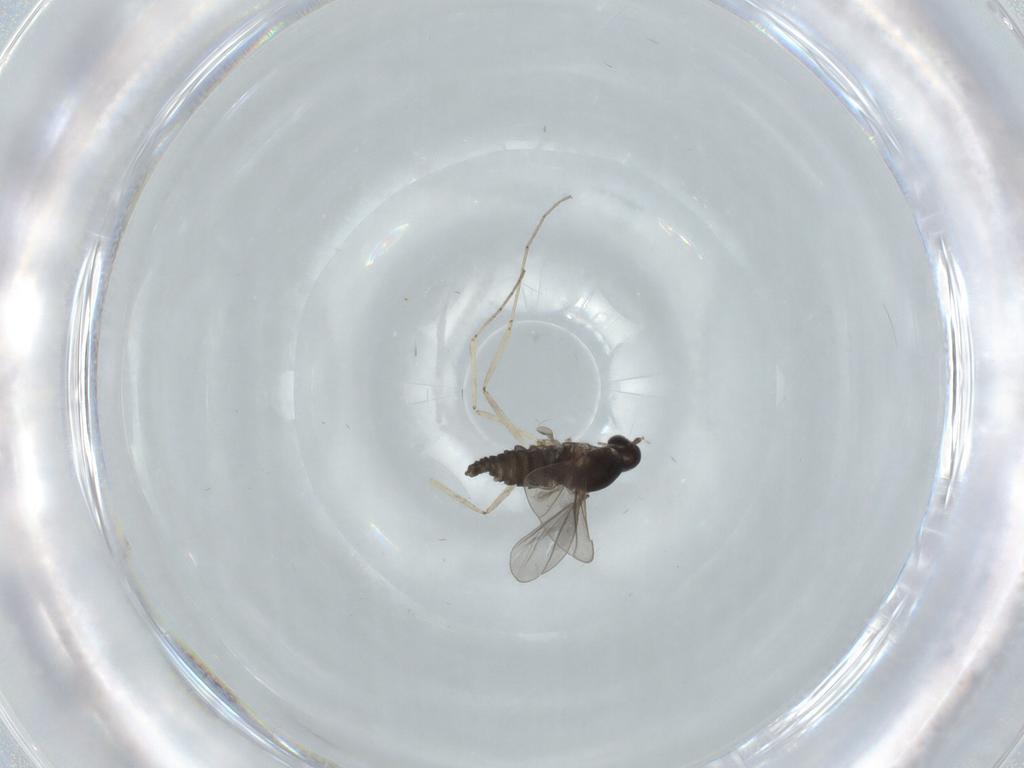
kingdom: Animalia
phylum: Arthropoda
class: Insecta
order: Diptera
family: Cecidomyiidae
